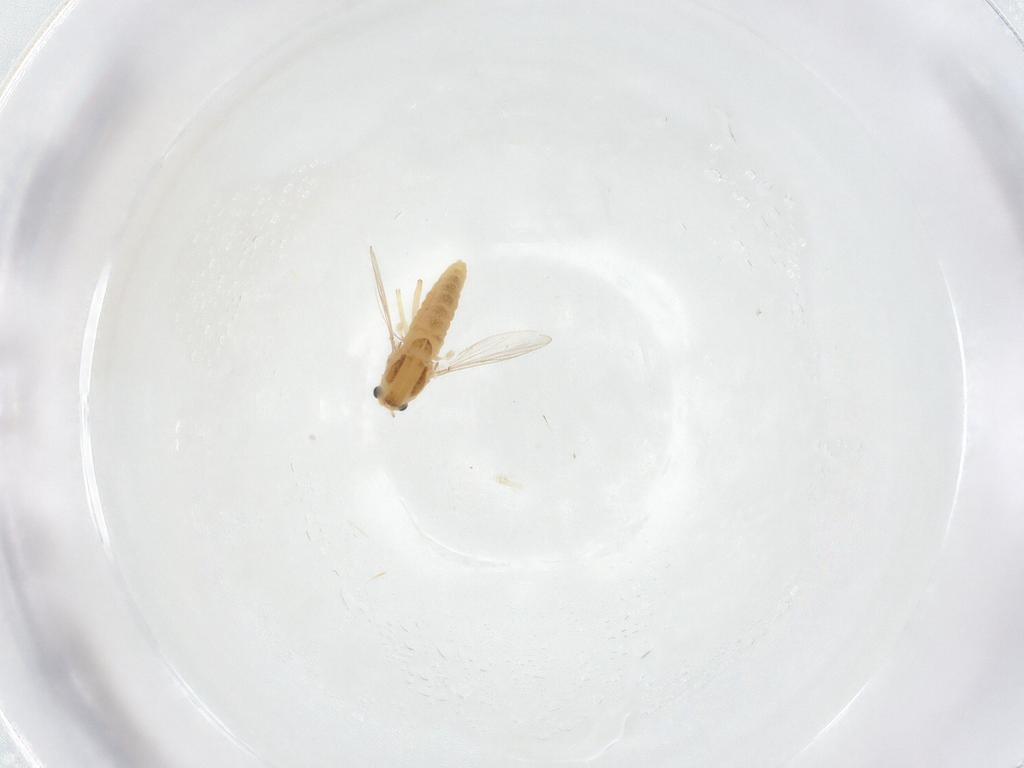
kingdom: Animalia
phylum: Arthropoda
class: Insecta
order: Diptera
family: Chironomidae
